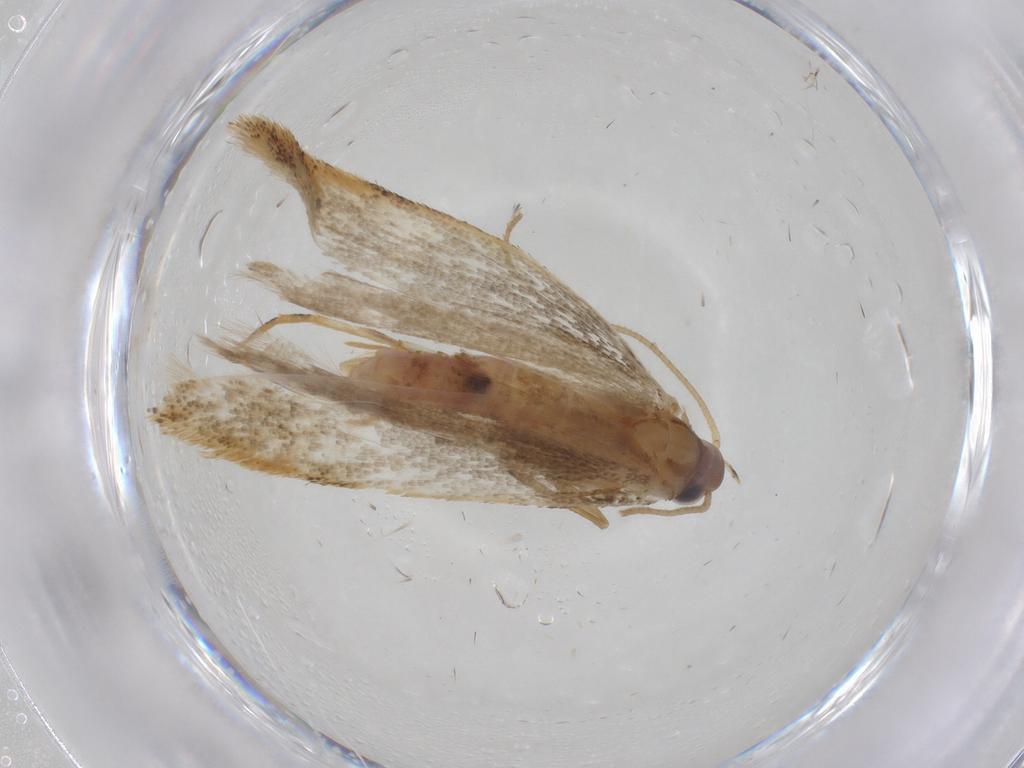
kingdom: Animalia
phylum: Arthropoda
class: Insecta
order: Lepidoptera
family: Crambidae
